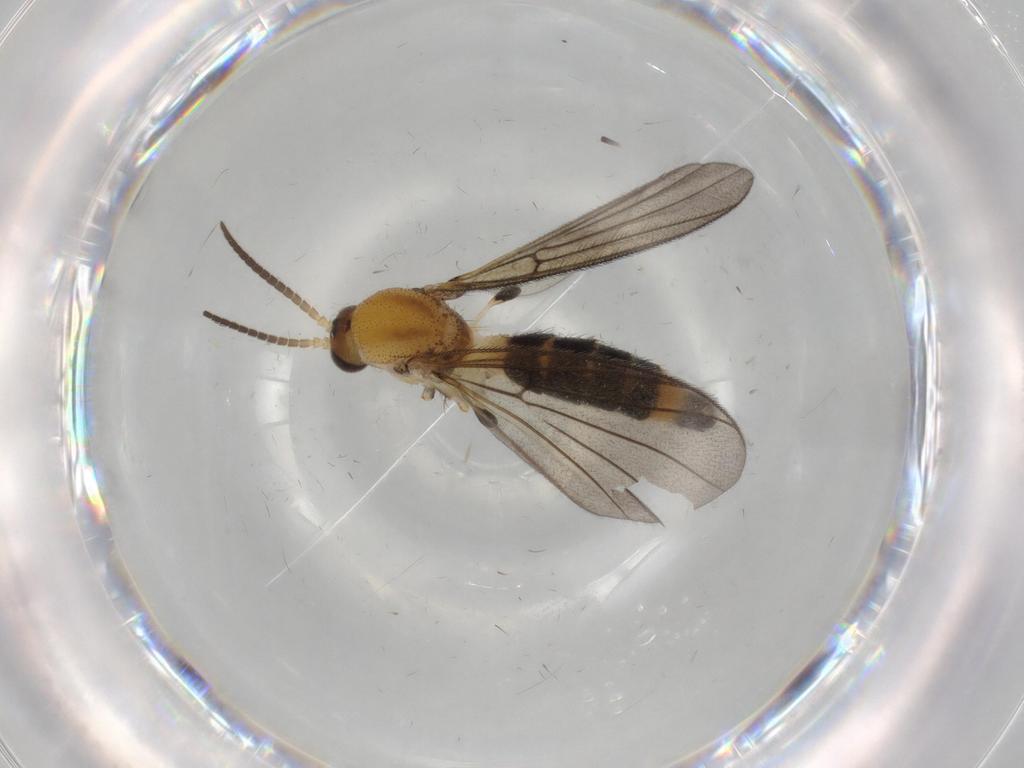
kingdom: Animalia
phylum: Arthropoda
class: Insecta
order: Diptera
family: Cecidomyiidae
